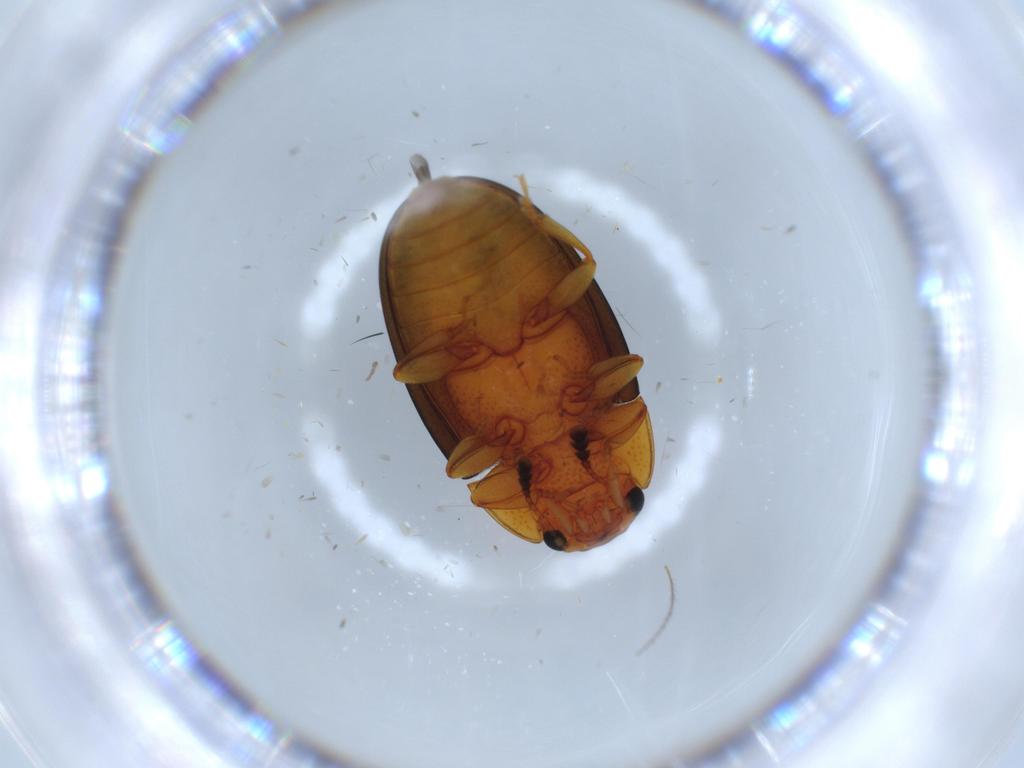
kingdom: Animalia
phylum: Arthropoda
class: Insecta
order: Coleoptera
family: Erotylidae
